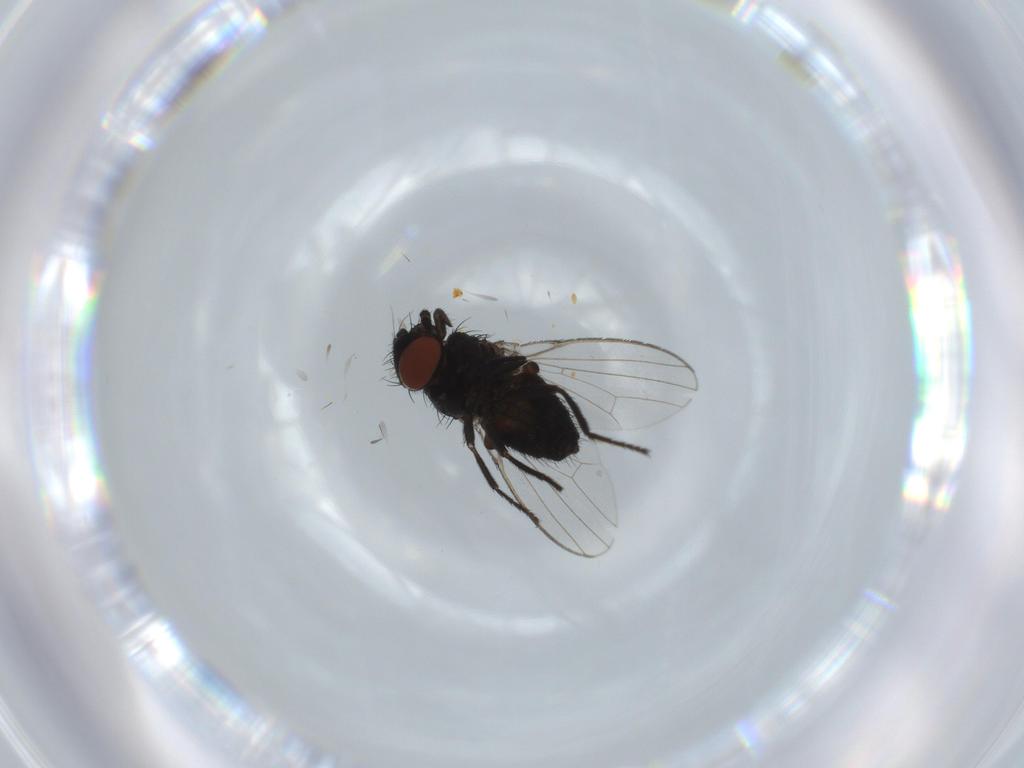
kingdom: Animalia
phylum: Arthropoda
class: Insecta
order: Diptera
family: Milichiidae
